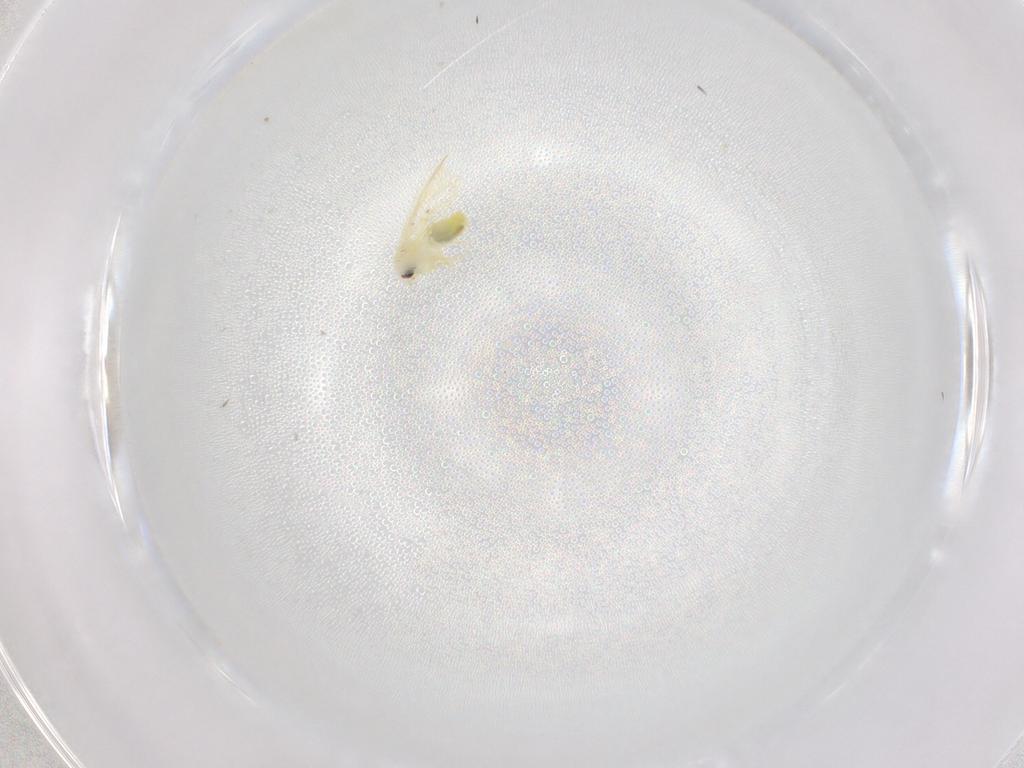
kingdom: Animalia
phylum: Arthropoda
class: Insecta
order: Hemiptera
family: Aleyrodidae
